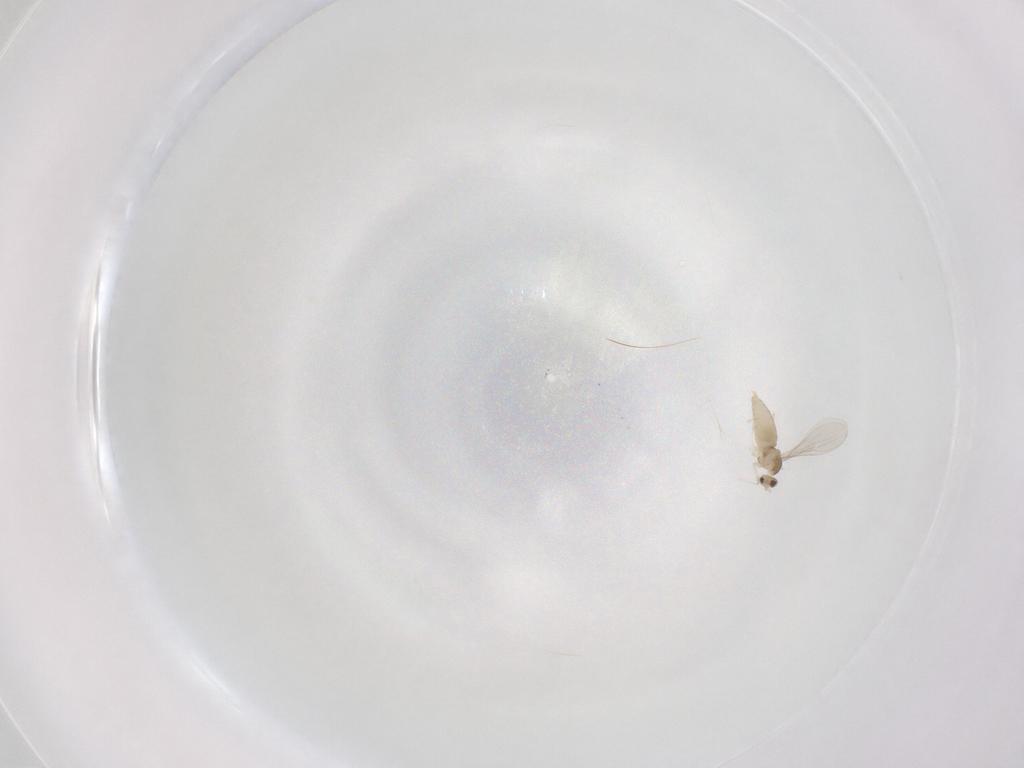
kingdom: Animalia
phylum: Arthropoda
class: Insecta
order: Diptera
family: Cecidomyiidae
